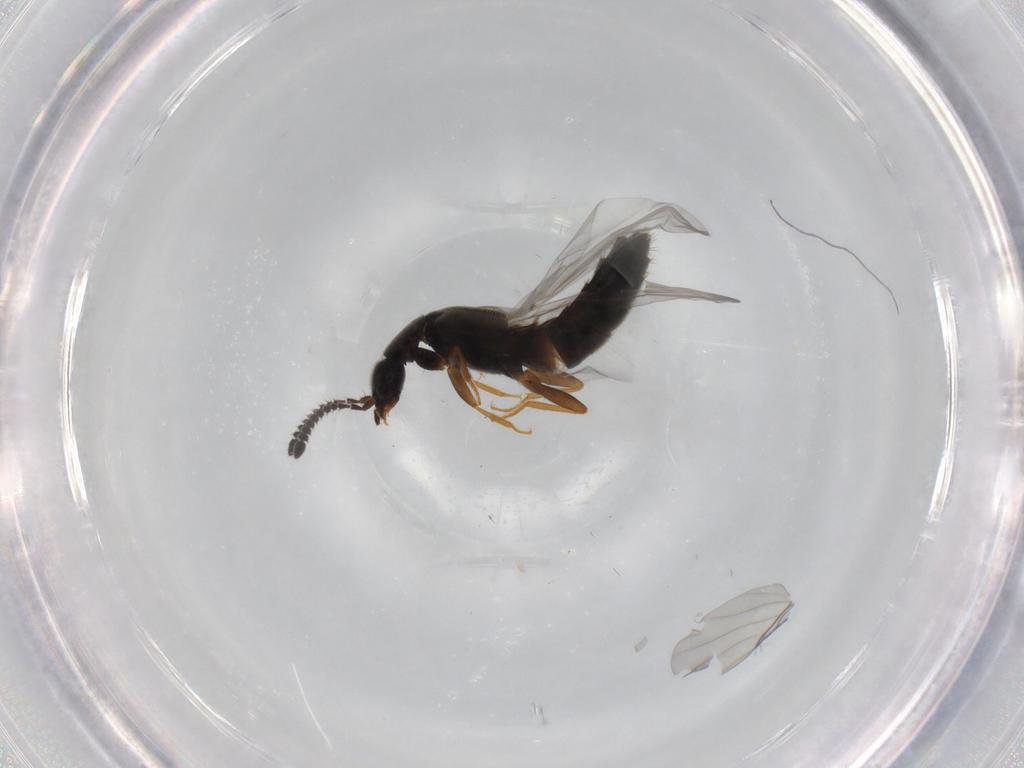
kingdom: Animalia
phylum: Arthropoda
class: Insecta
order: Coleoptera
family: Staphylinidae
